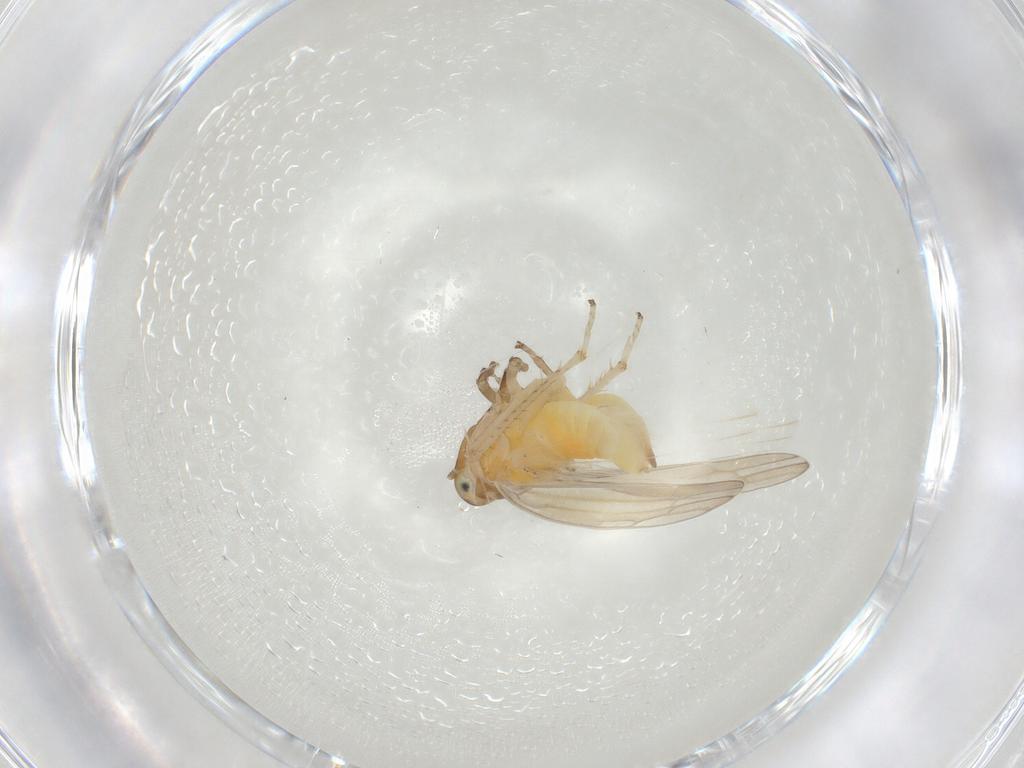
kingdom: Animalia
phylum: Arthropoda
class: Insecta
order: Hemiptera
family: Cicadellidae
